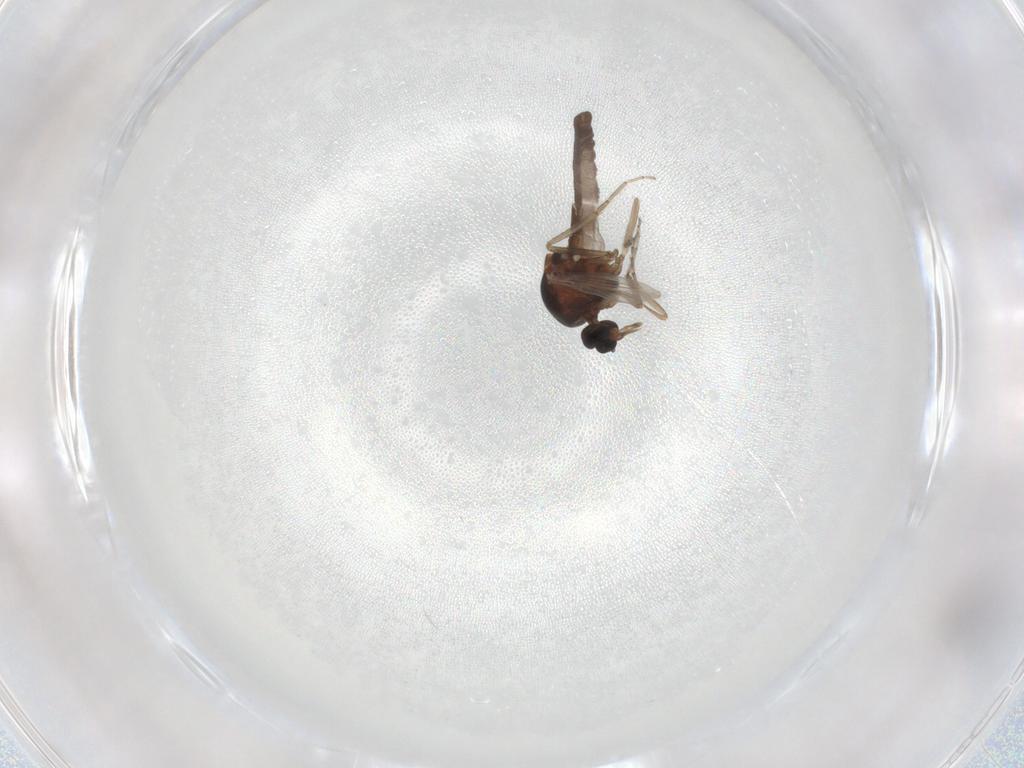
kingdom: Animalia
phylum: Arthropoda
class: Insecta
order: Diptera
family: Ceratopogonidae
